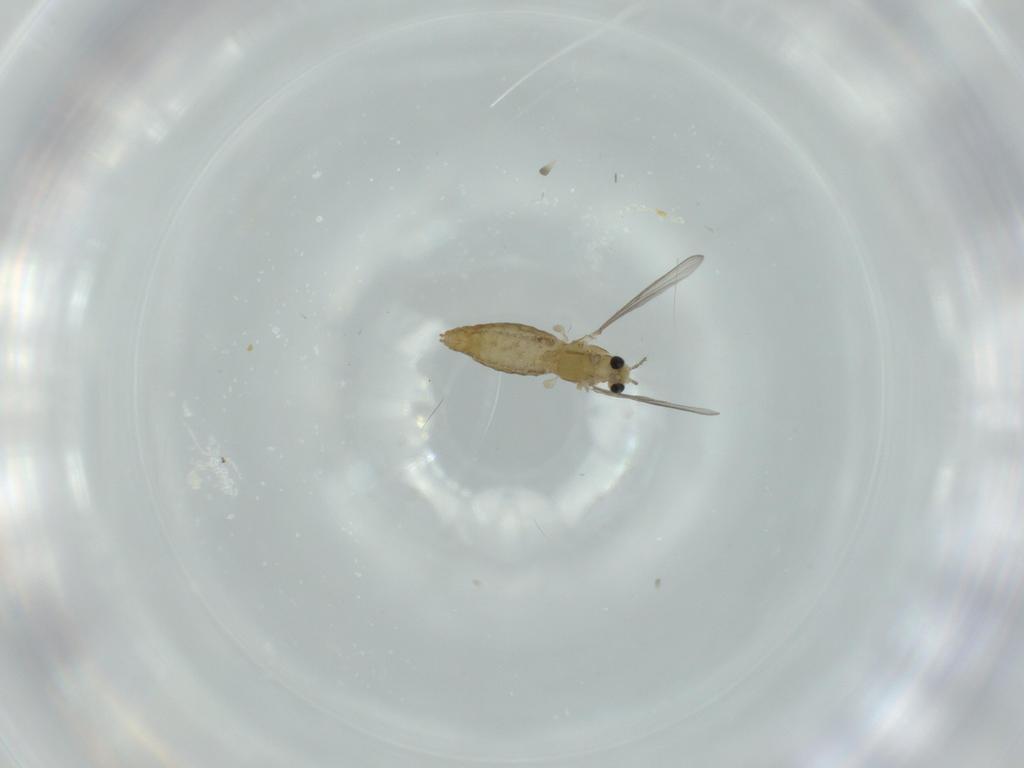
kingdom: Animalia
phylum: Arthropoda
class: Insecta
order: Diptera
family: Chironomidae
